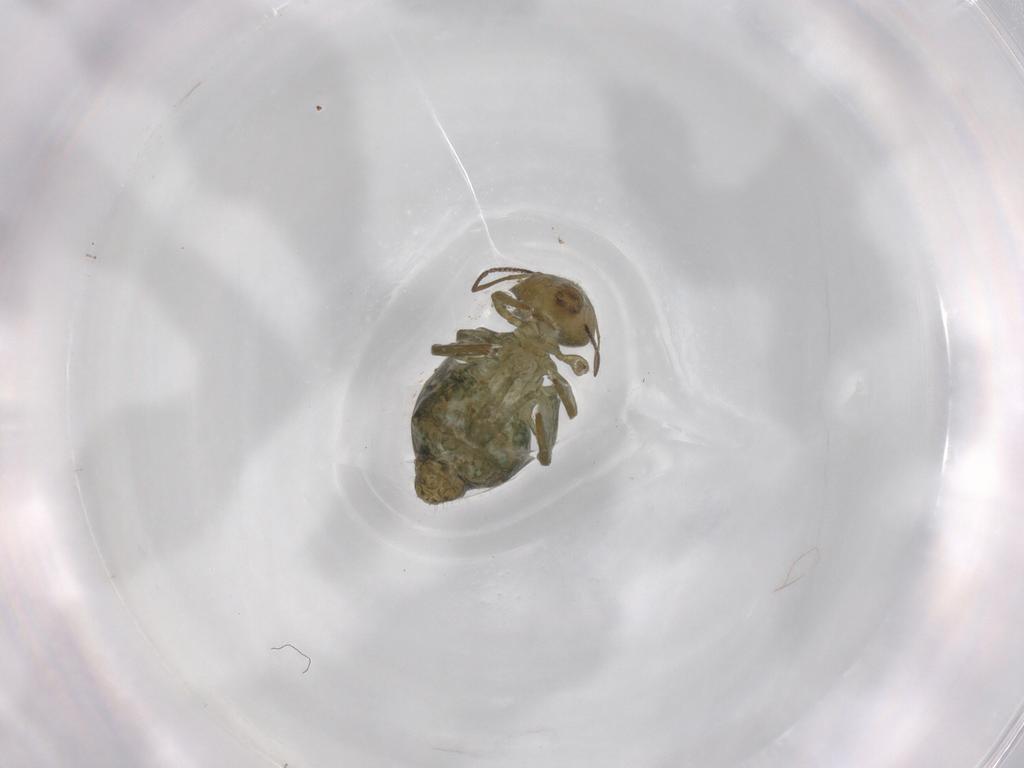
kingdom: Animalia
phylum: Arthropoda
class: Collembola
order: Symphypleona
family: Sminthuridae
